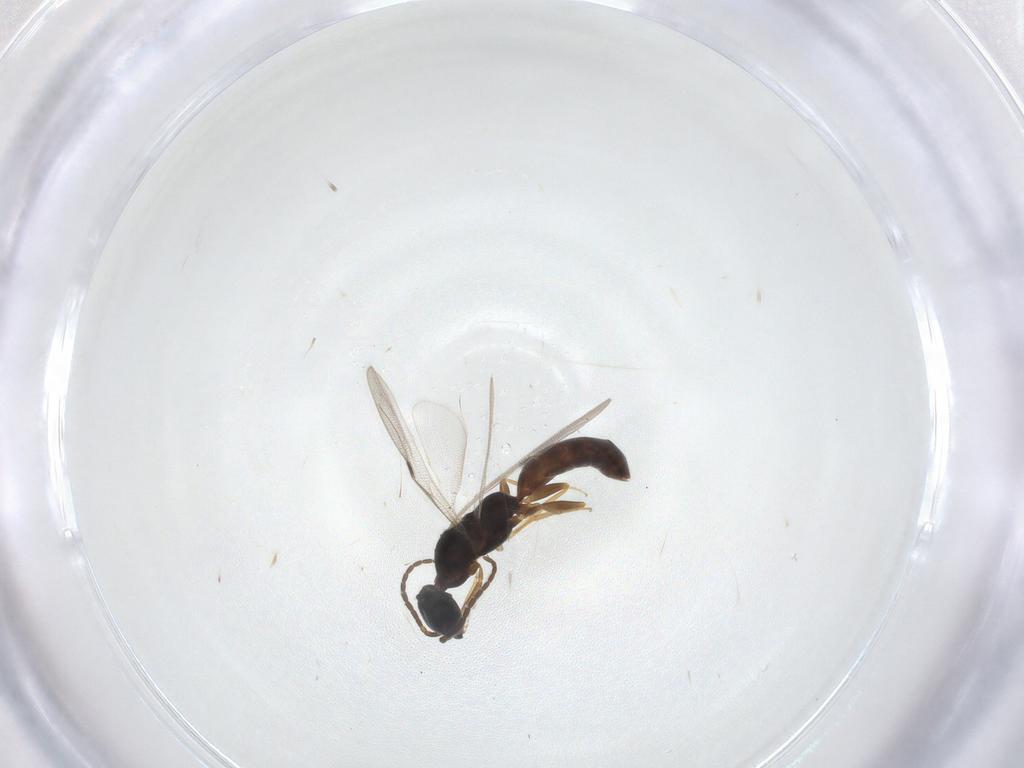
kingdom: Animalia
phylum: Arthropoda
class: Insecta
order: Hymenoptera
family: Bethylidae
